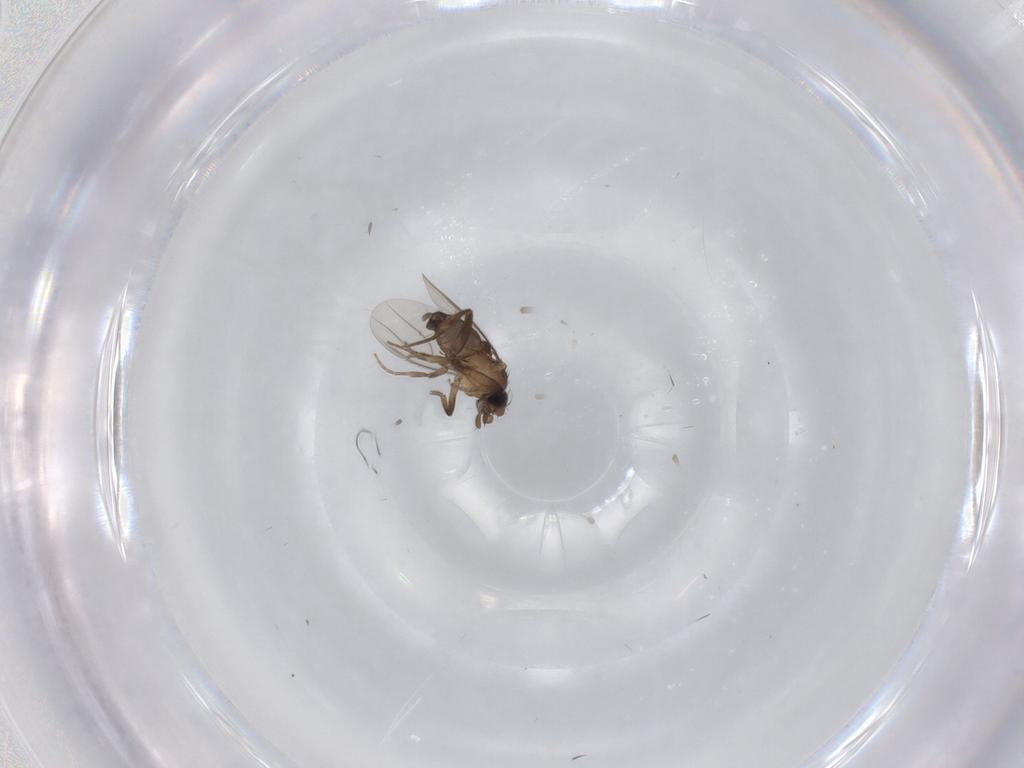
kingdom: Animalia
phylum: Arthropoda
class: Insecta
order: Diptera
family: Phoridae
